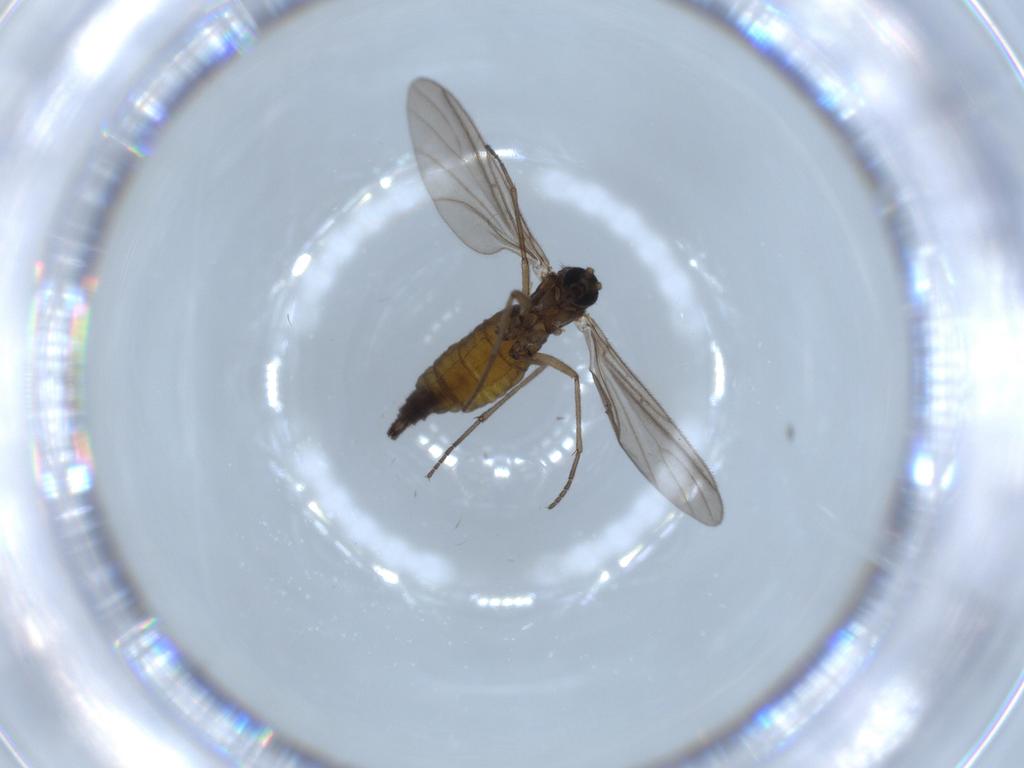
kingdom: Animalia
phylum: Arthropoda
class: Insecta
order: Diptera
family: Sciaridae
